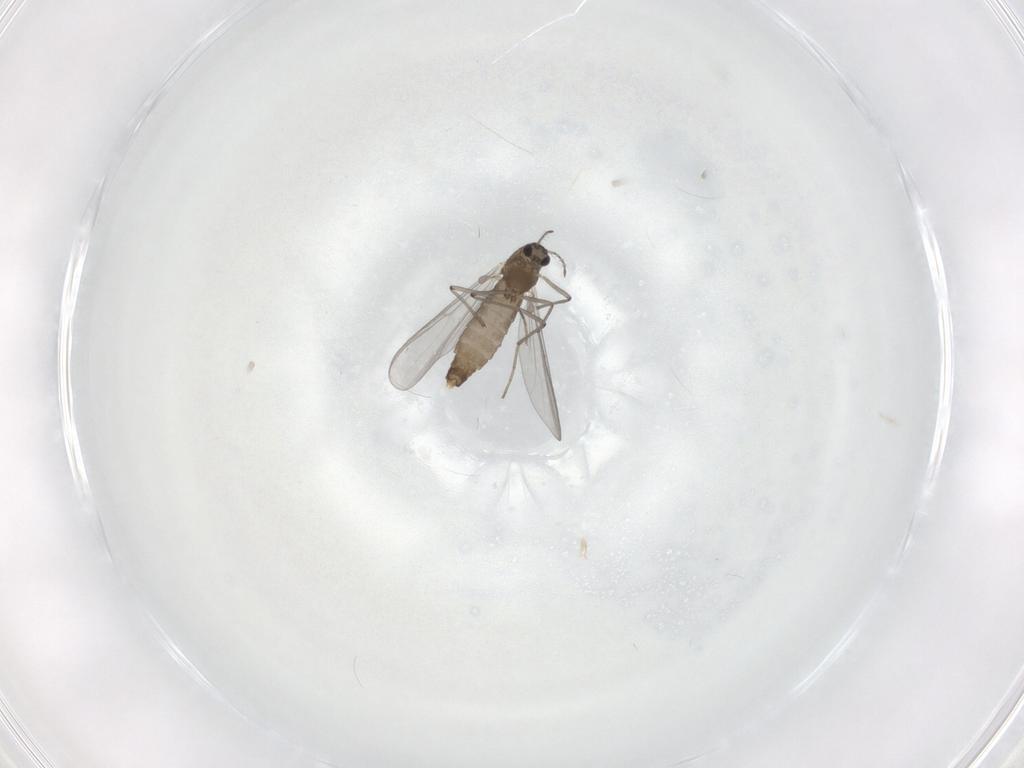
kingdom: Animalia
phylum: Arthropoda
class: Insecta
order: Diptera
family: Chironomidae
